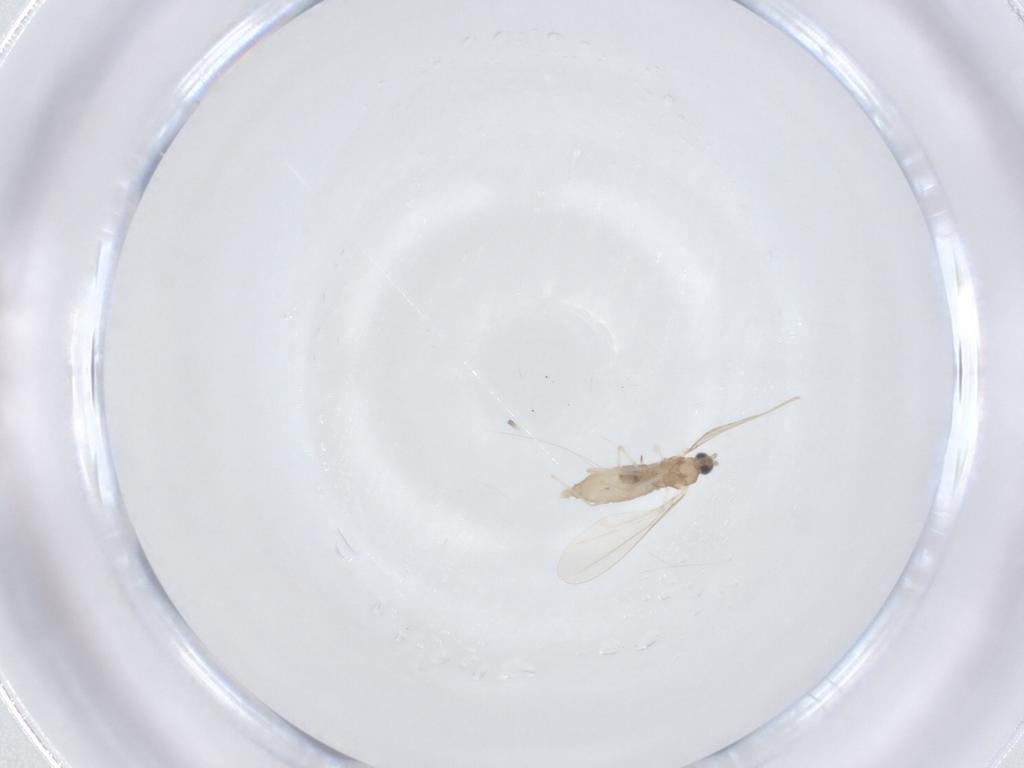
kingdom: Animalia
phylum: Arthropoda
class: Insecta
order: Diptera
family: Cecidomyiidae
